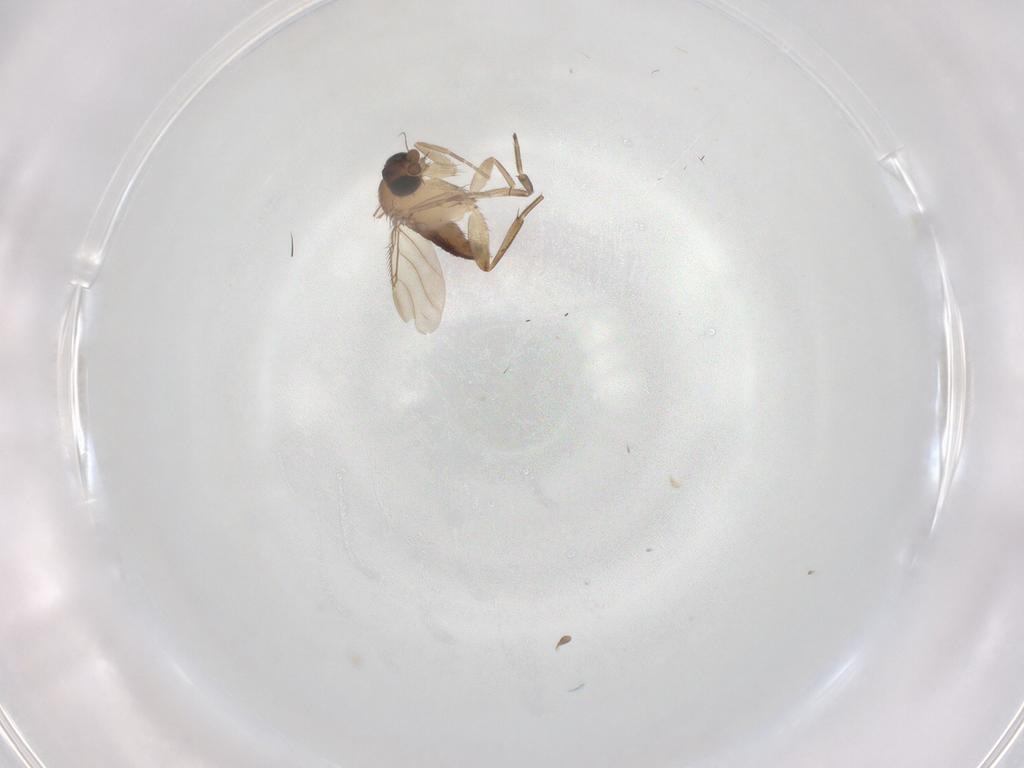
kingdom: Animalia
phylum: Arthropoda
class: Insecta
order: Diptera
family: Phoridae
